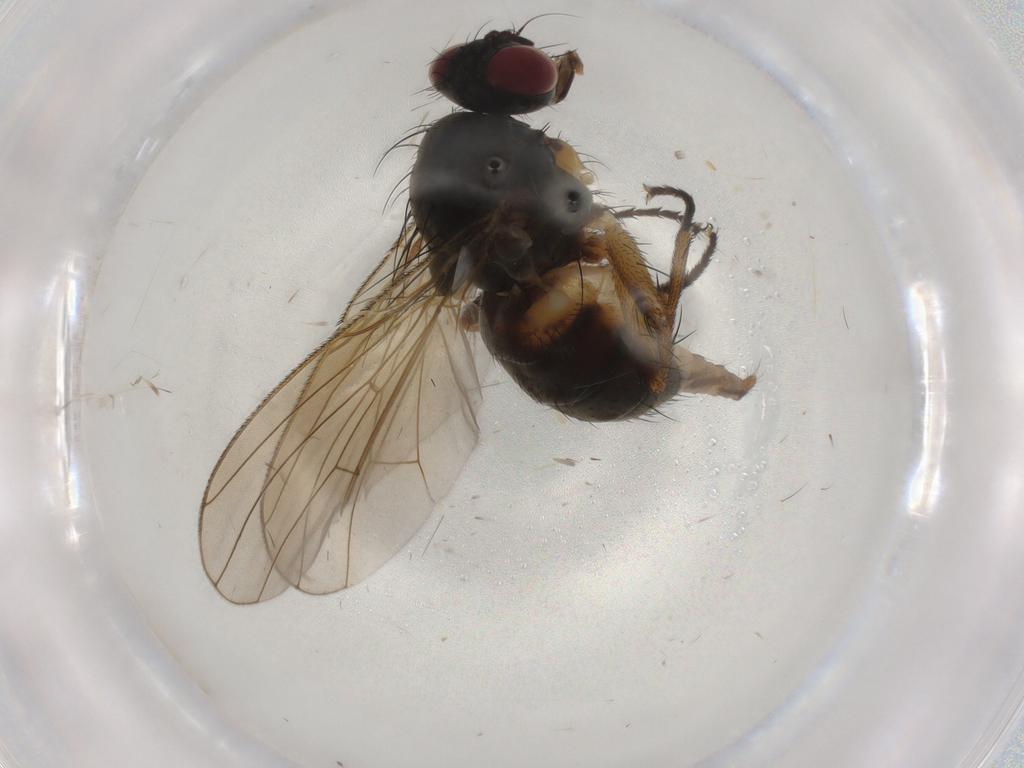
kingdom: Animalia
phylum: Arthropoda
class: Insecta
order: Diptera
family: Muscidae
